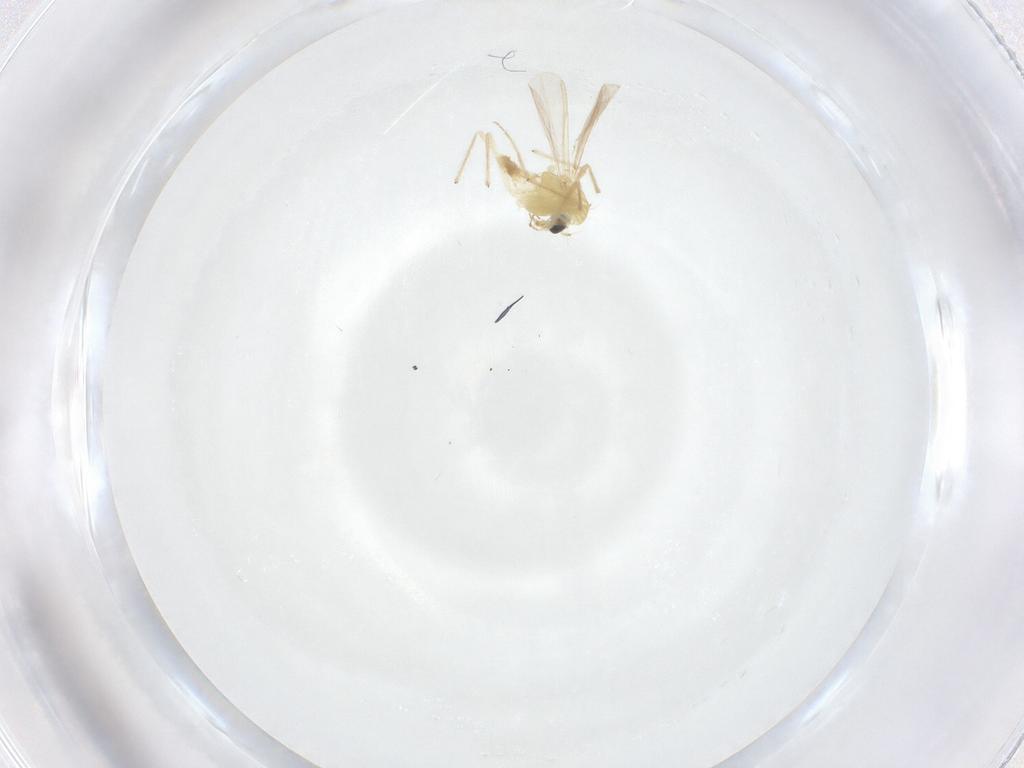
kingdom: Animalia
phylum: Arthropoda
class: Insecta
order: Diptera
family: Chironomidae
